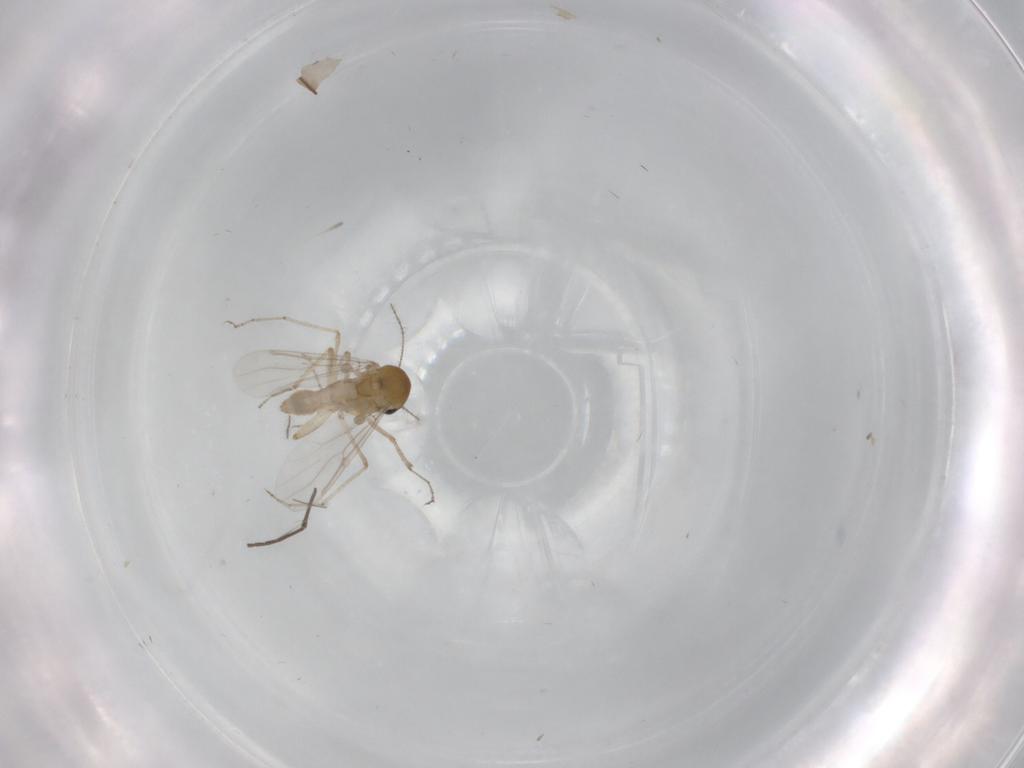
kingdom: Animalia
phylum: Arthropoda
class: Insecta
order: Diptera
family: Ceratopogonidae
